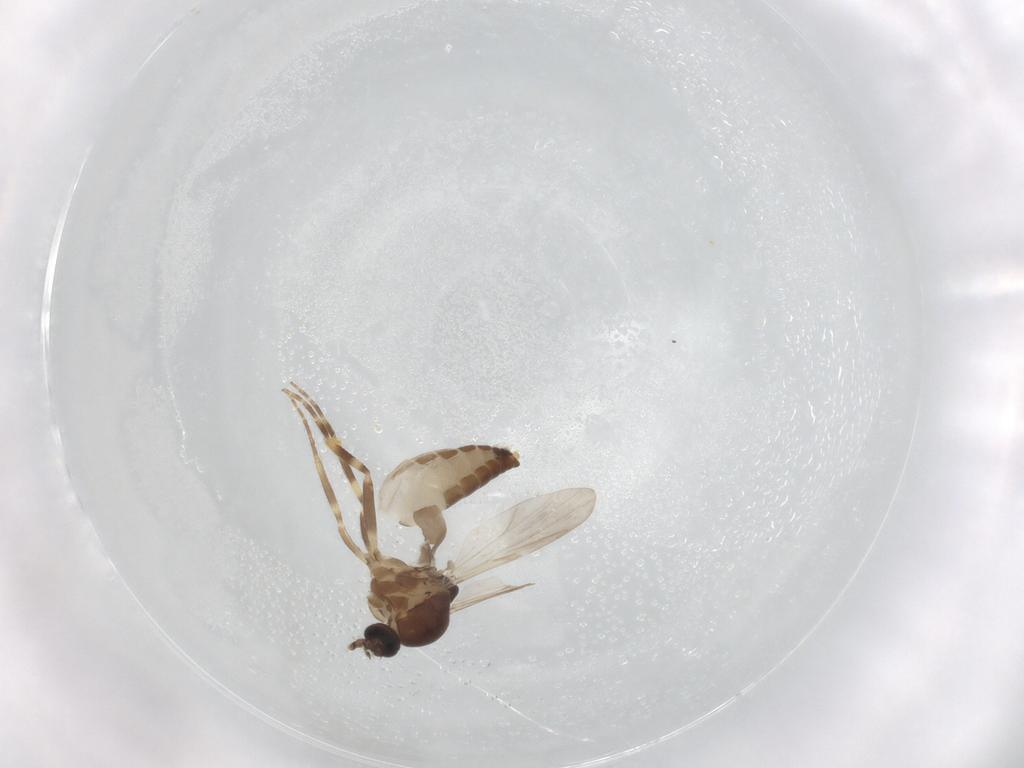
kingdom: Animalia
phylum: Arthropoda
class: Insecta
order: Diptera
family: Ceratopogonidae
